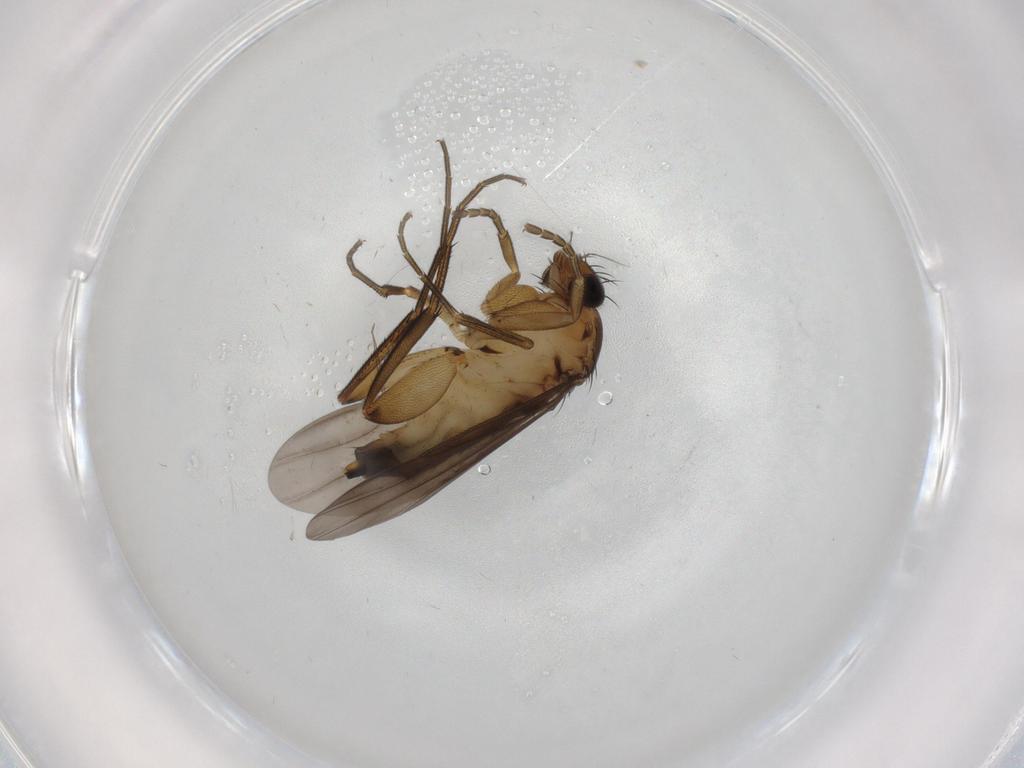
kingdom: Animalia
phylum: Arthropoda
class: Insecta
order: Diptera
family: Phoridae
